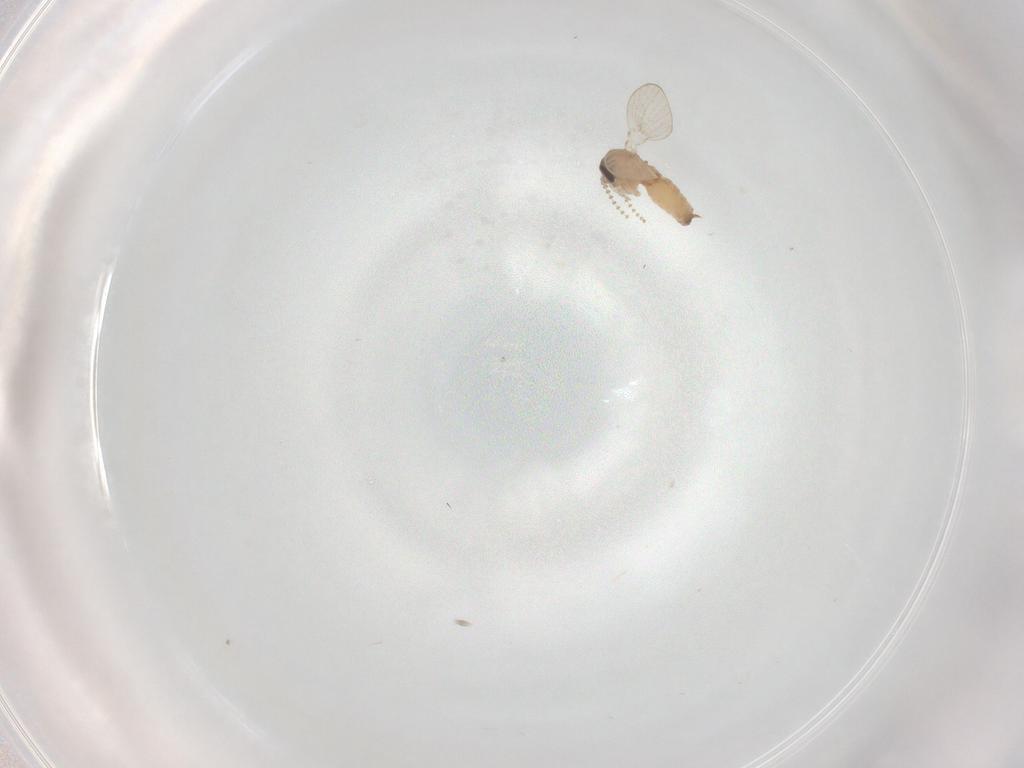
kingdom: Animalia
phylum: Arthropoda
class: Insecta
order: Diptera
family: Psychodidae
